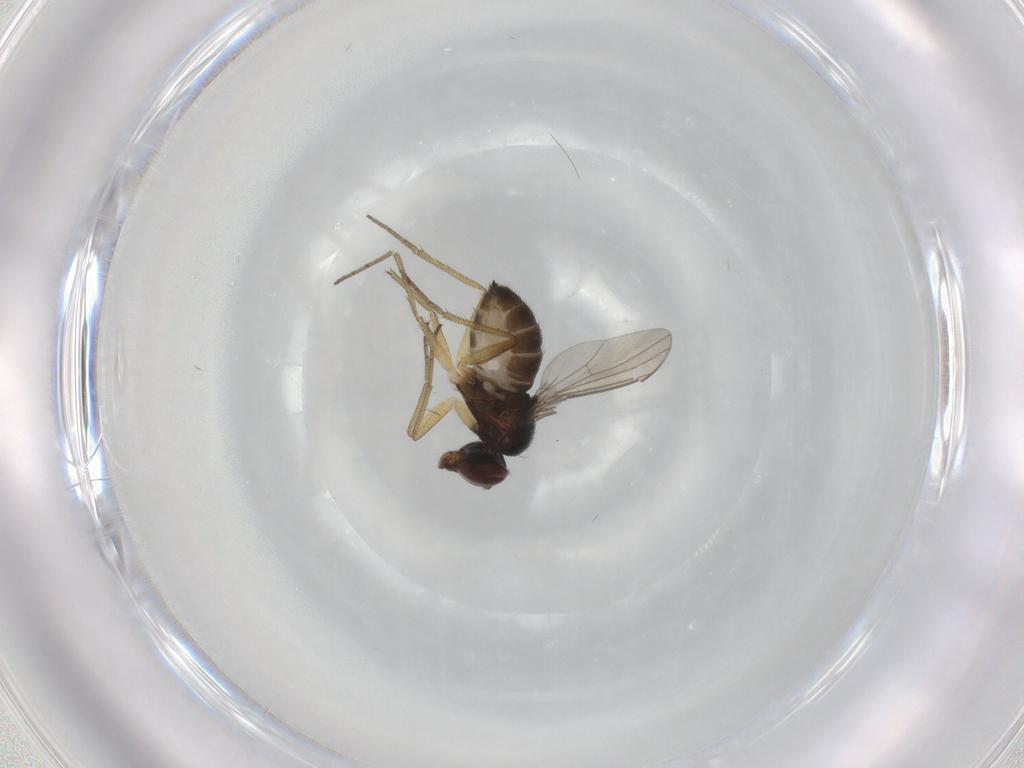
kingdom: Animalia
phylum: Arthropoda
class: Insecta
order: Diptera
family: Dolichopodidae
